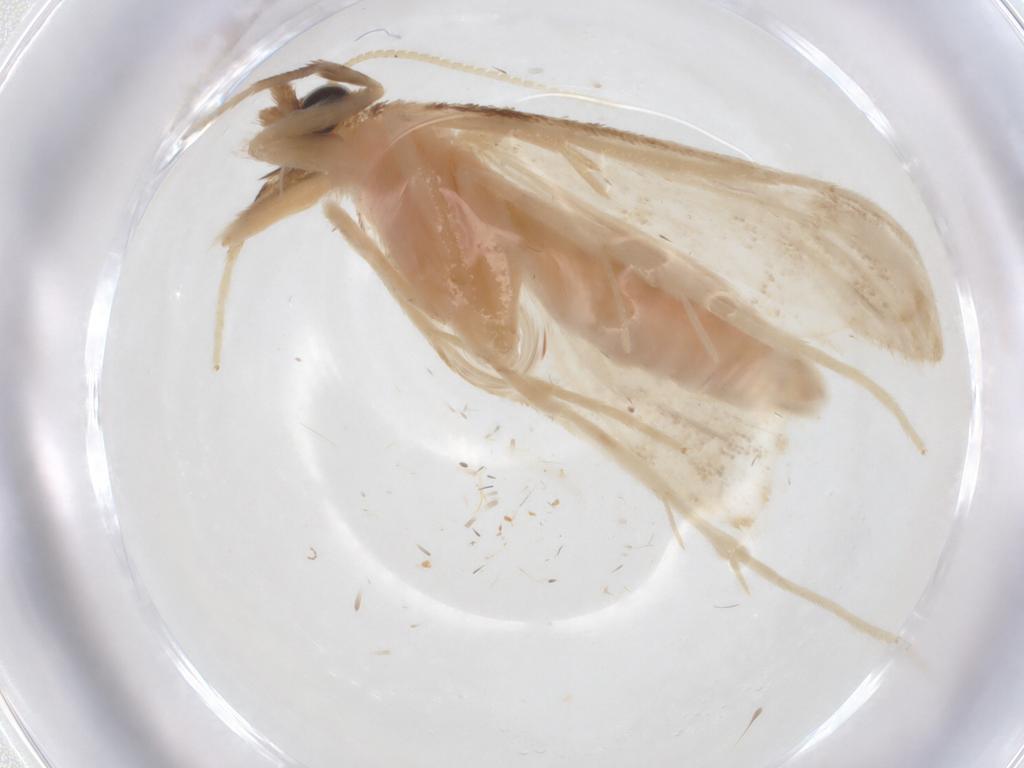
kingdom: Animalia
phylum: Arthropoda
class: Insecta
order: Lepidoptera
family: Crambidae
